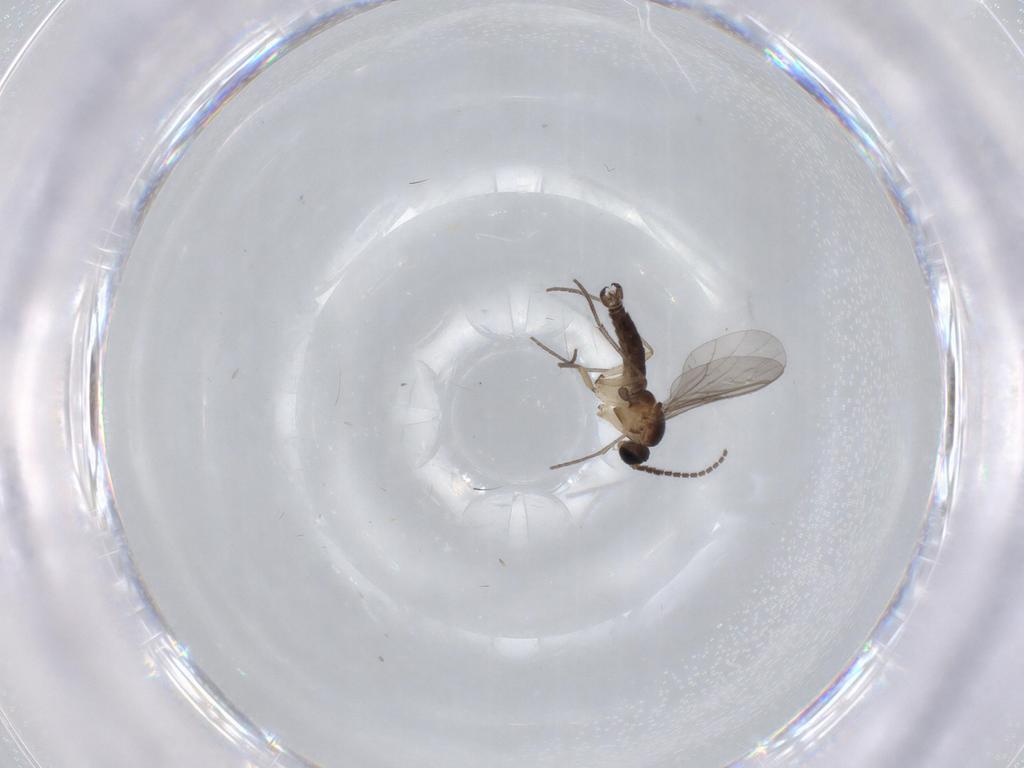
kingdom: Animalia
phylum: Arthropoda
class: Insecta
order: Diptera
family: Sciaridae
